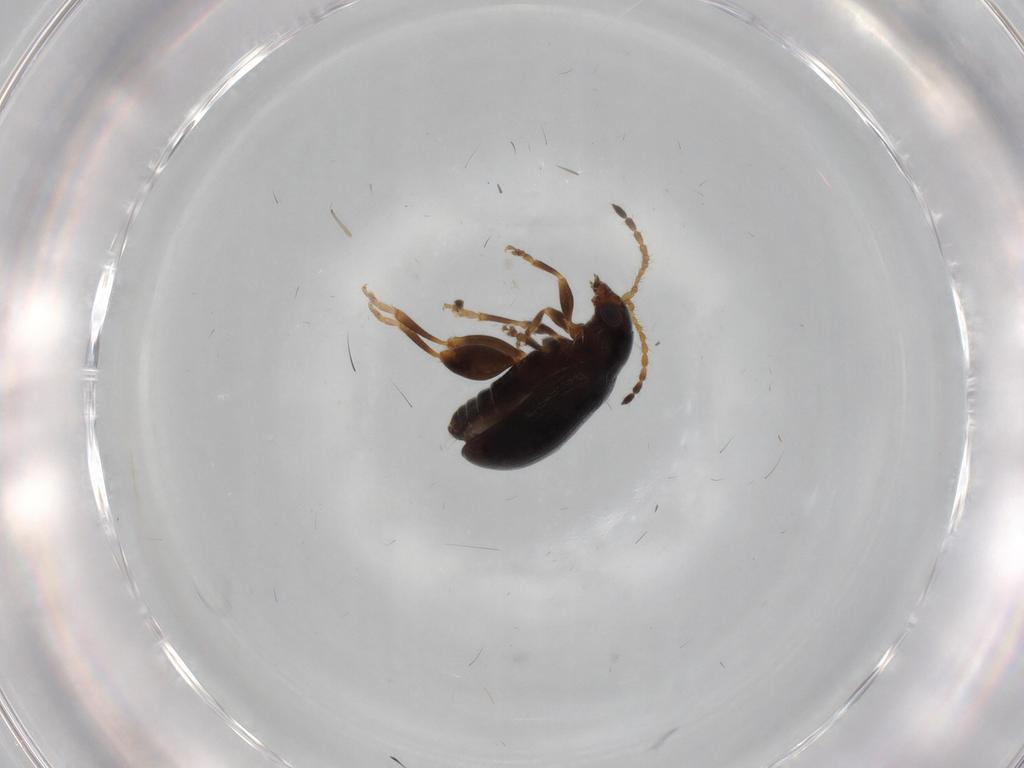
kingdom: Animalia
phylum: Arthropoda
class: Insecta
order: Coleoptera
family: Chrysomelidae
